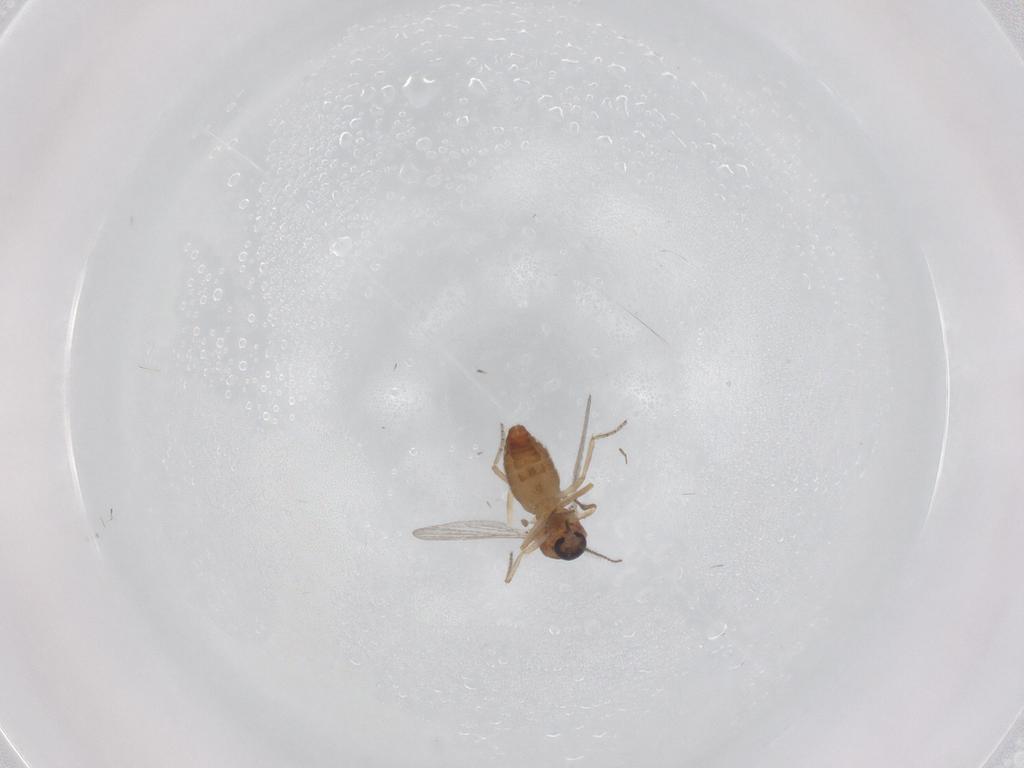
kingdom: Animalia
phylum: Arthropoda
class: Insecta
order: Diptera
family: Ceratopogonidae
